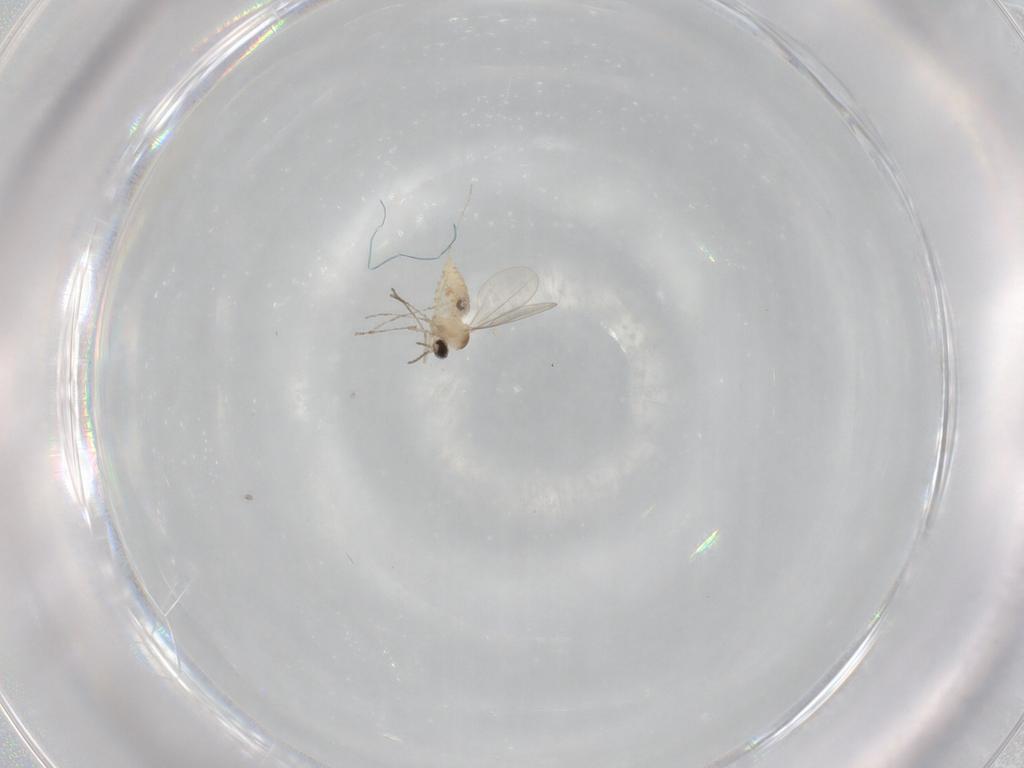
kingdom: Animalia
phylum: Arthropoda
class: Insecta
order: Diptera
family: Cecidomyiidae
